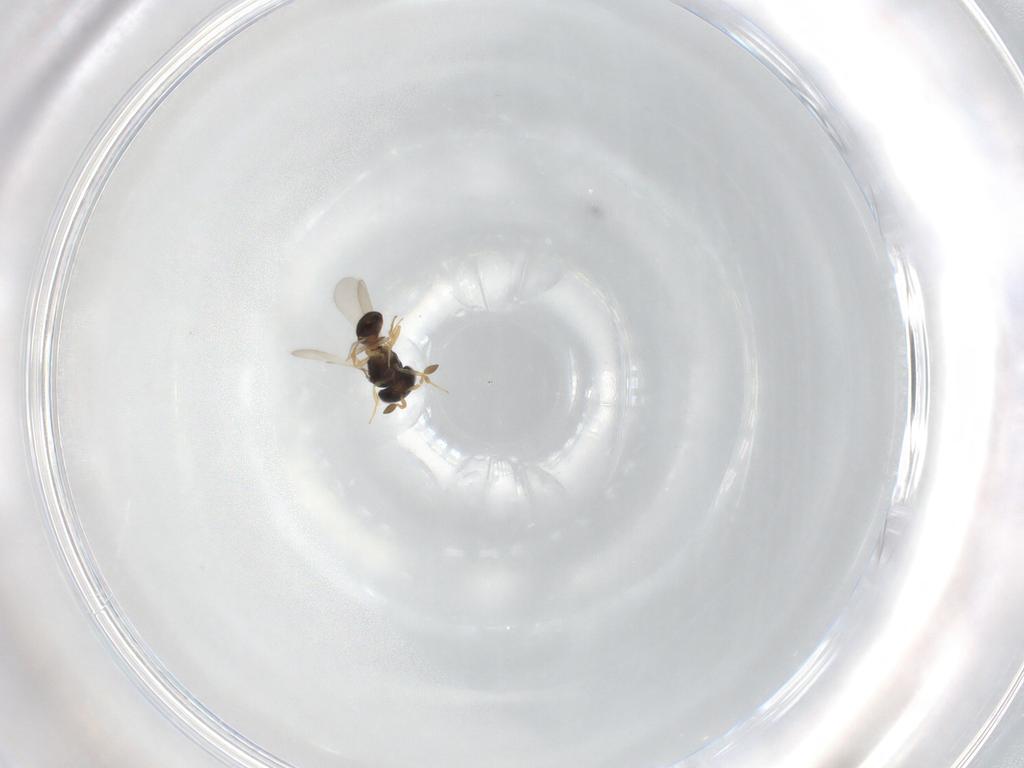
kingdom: Animalia
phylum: Arthropoda
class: Insecta
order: Hymenoptera
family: Scelionidae
